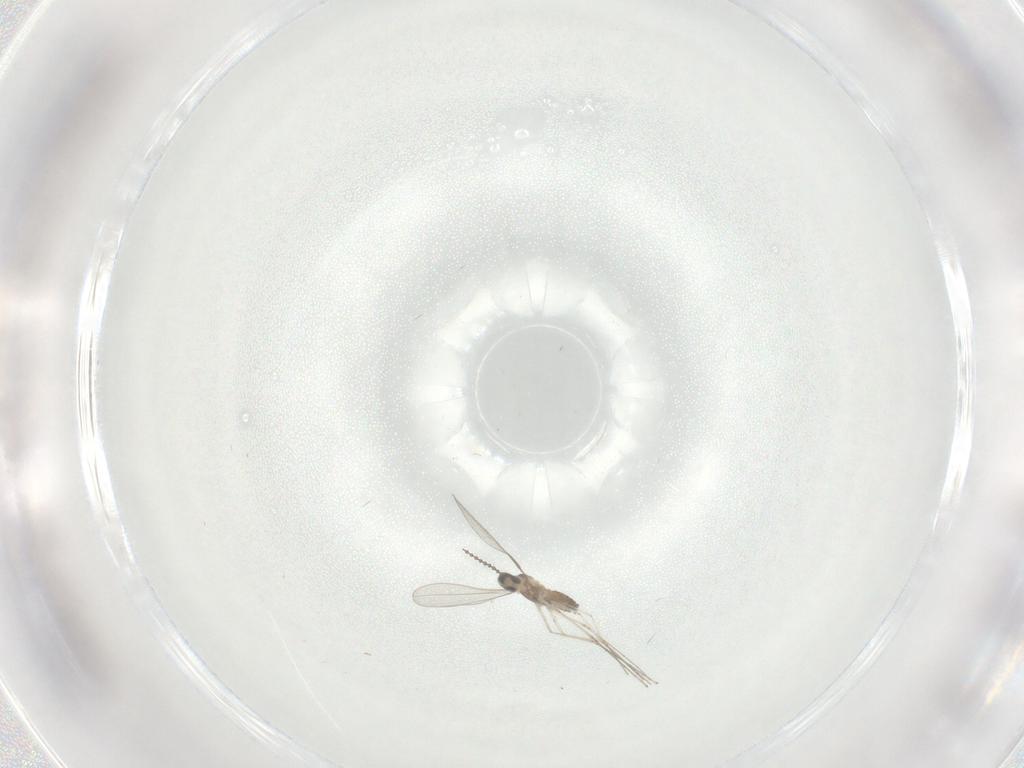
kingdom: Animalia
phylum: Arthropoda
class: Insecta
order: Diptera
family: Cecidomyiidae
